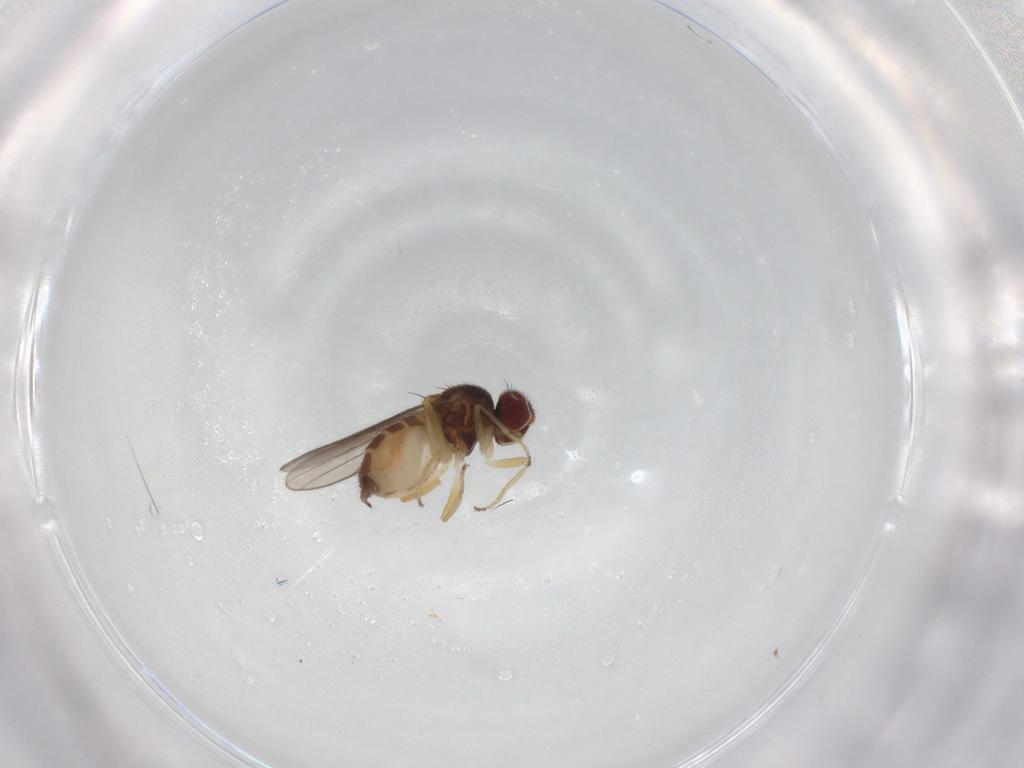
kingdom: Animalia
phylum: Arthropoda
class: Insecta
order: Diptera
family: Chloropidae
